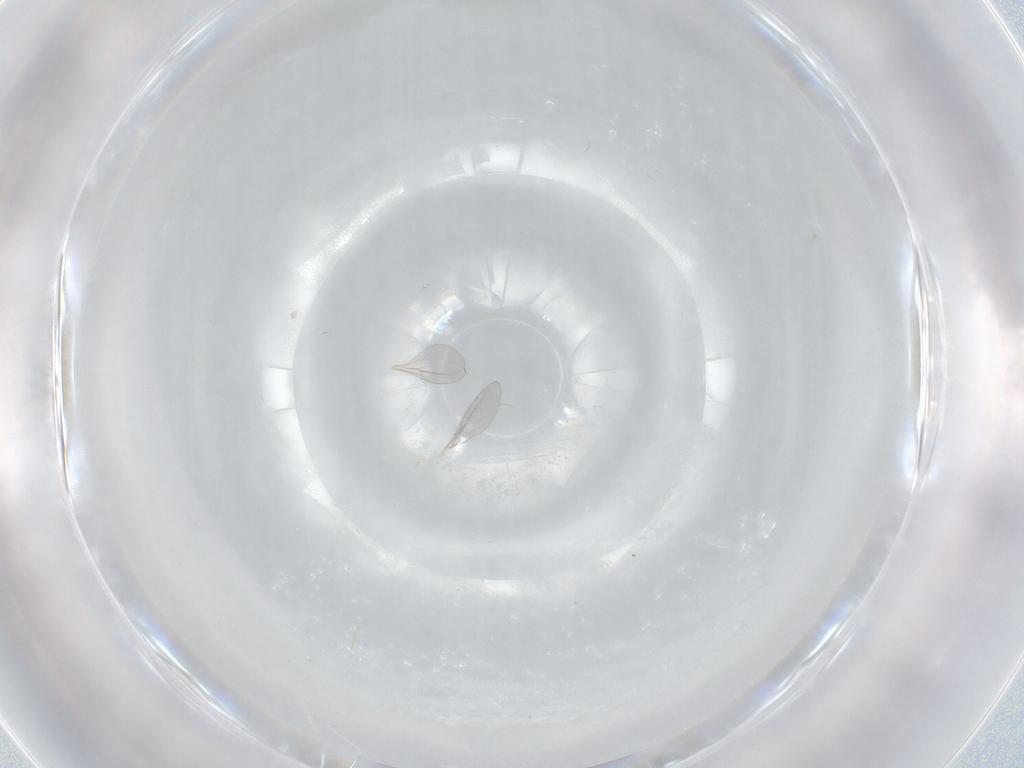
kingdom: Animalia
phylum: Arthropoda
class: Insecta
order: Diptera
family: Cecidomyiidae
